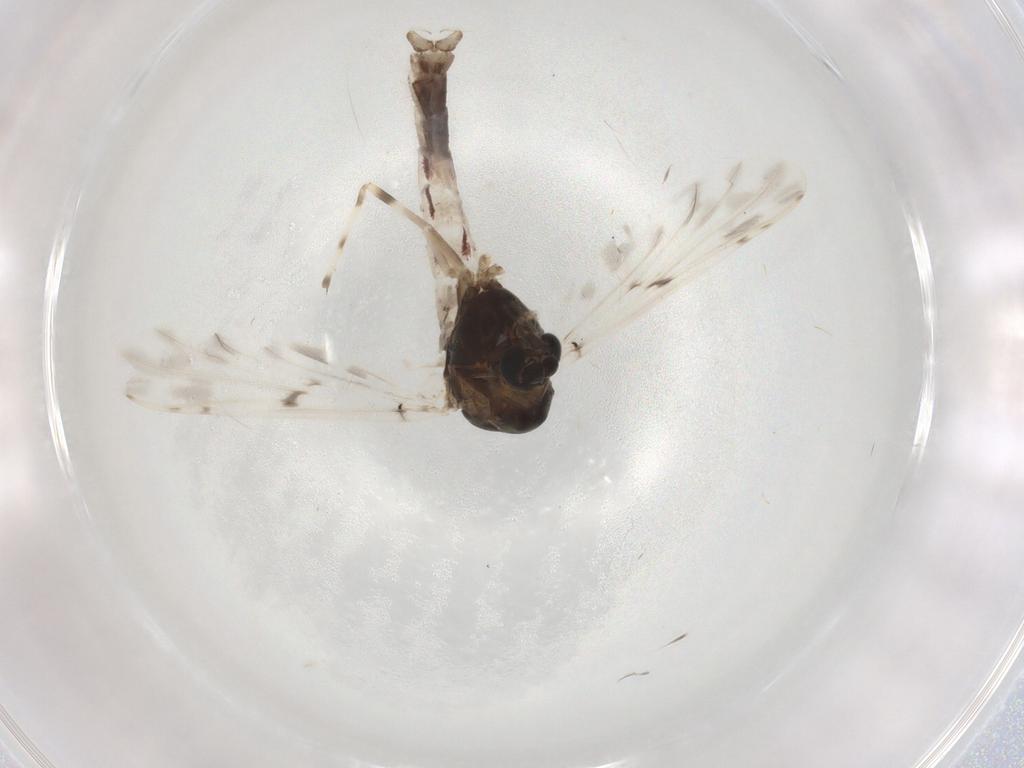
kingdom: Animalia
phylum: Arthropoda
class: Insecta
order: Diptera
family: Chironomidae
